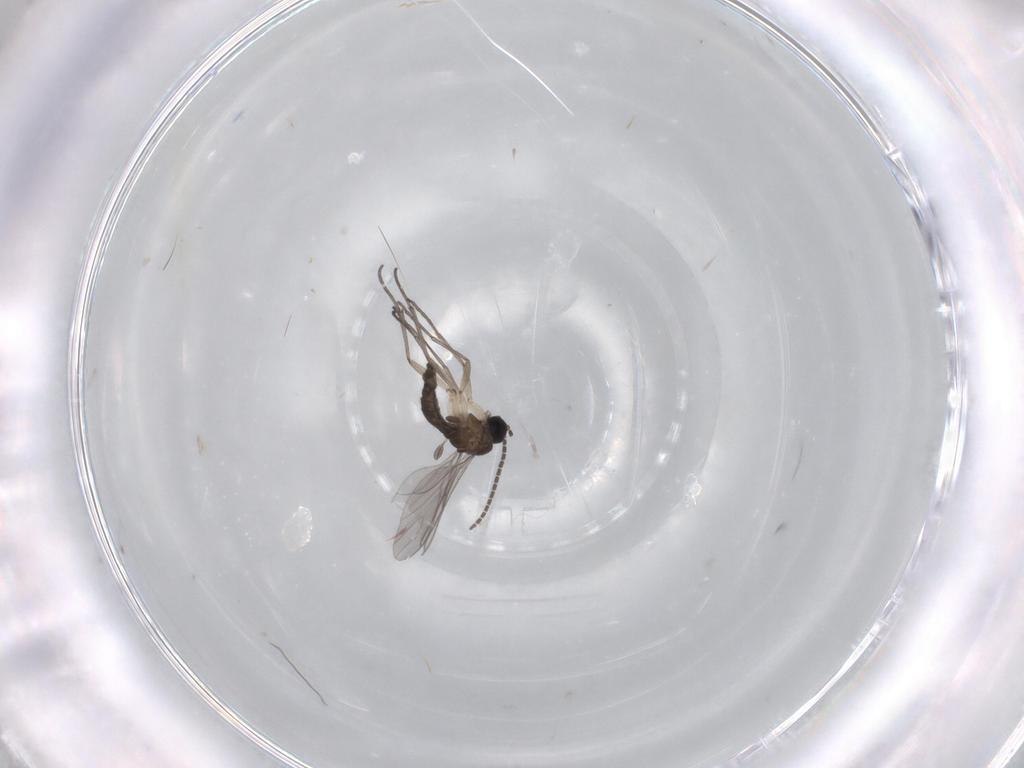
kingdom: Animalia
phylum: Arthropoda
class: Insecta
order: Diptera
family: Sciaridae
